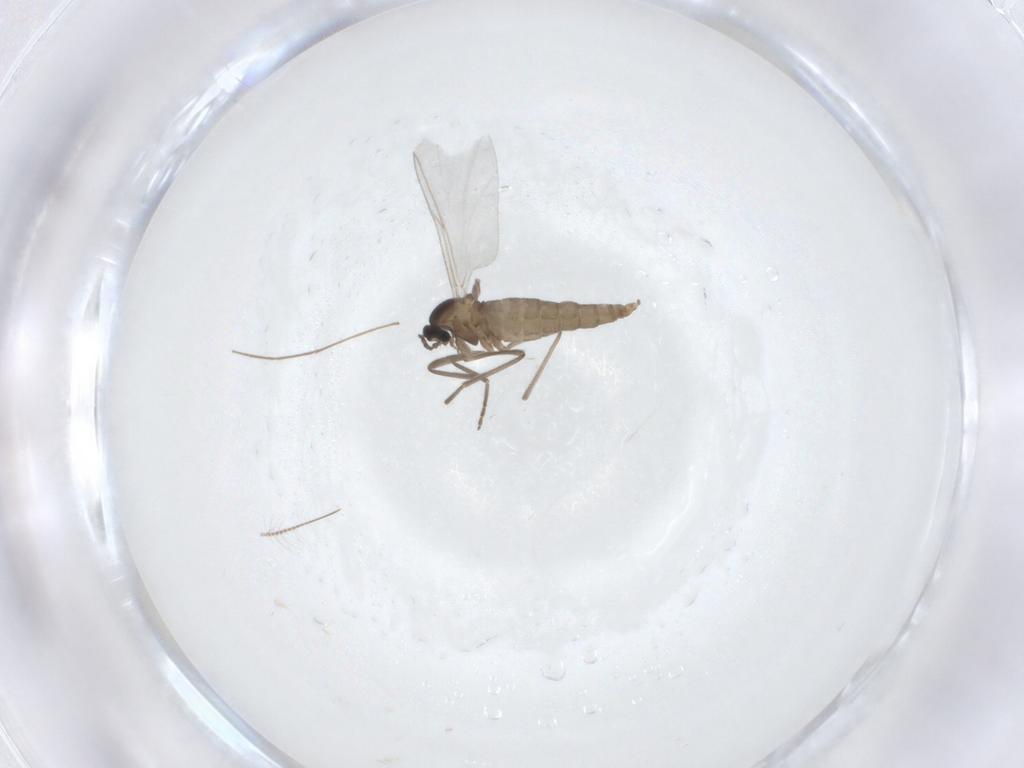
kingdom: Animalia
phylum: Arthropoda
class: Insecta
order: Diptera
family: Cecidomyiidae
